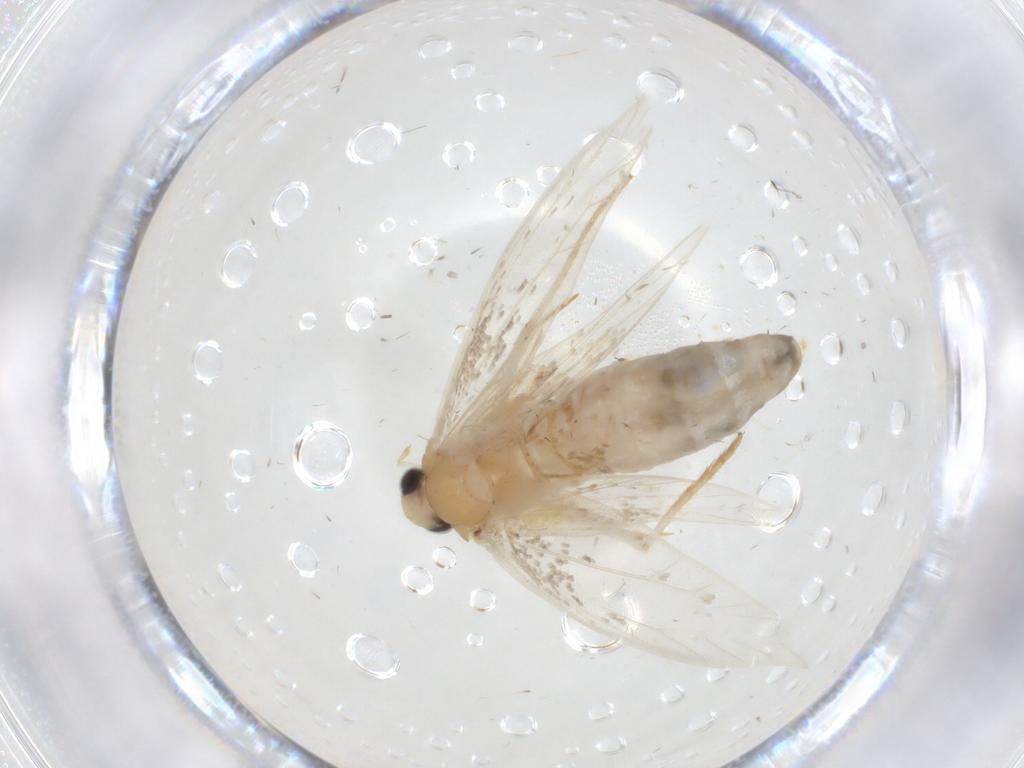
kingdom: Animalia
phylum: Arthropoda
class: Insecta
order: Lepidoptera
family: Tineidae
